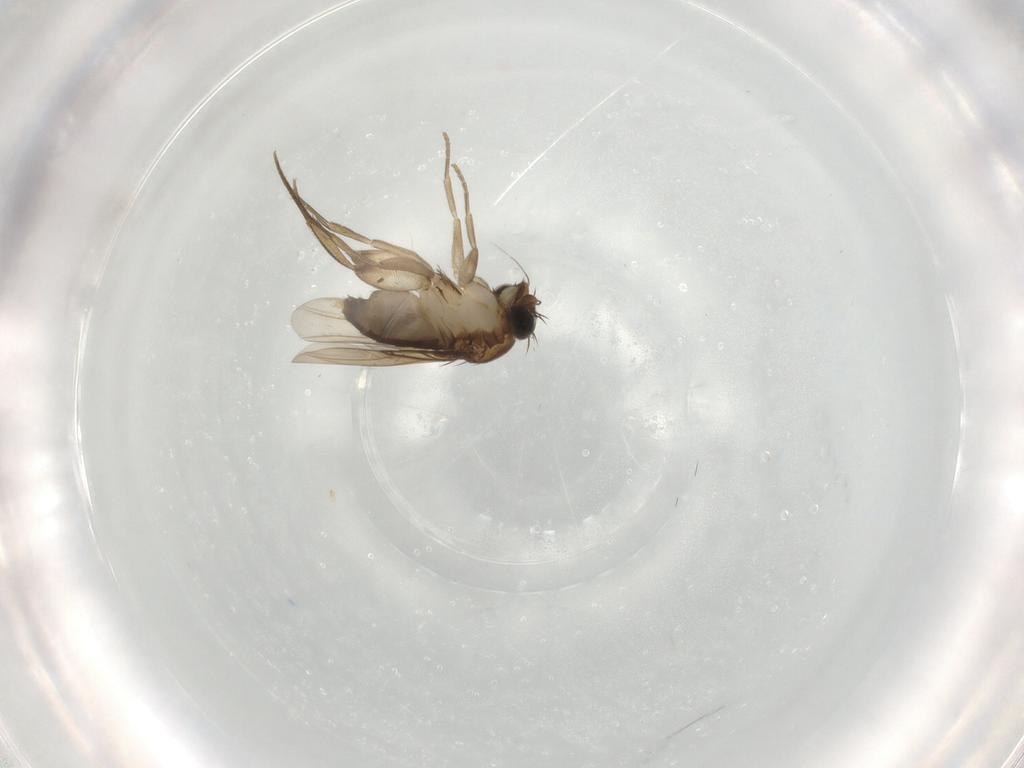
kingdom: Animalia
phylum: Arthropoda
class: Insecta
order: Diptera
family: Phoridae
